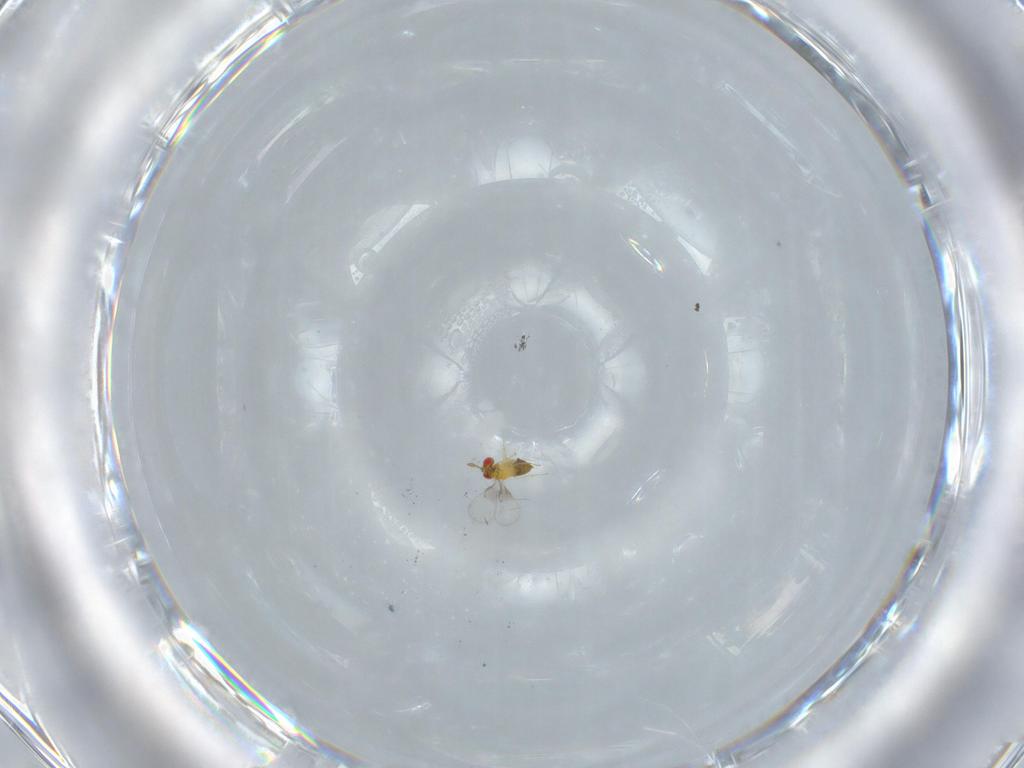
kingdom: Animalia
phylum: Arthropoda
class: Insecta
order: Hymenoptera
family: Trichogrammatidae
